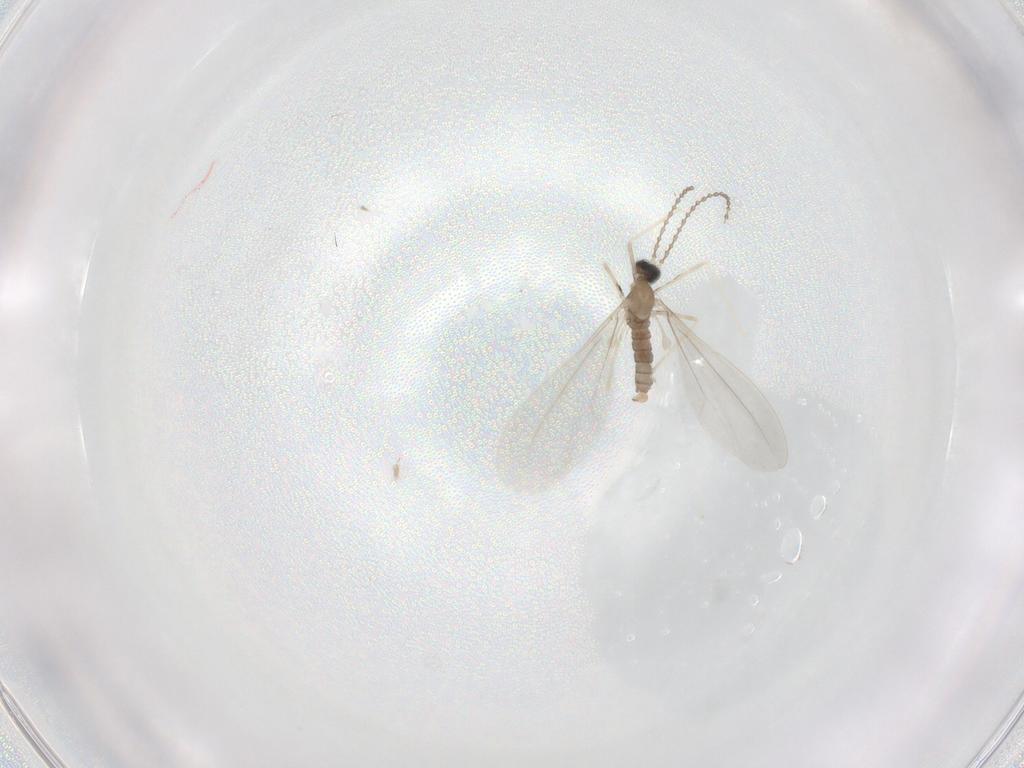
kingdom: Animalia
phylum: Arthropoda
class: Insecta
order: Diptera
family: Cecidomyiidae
